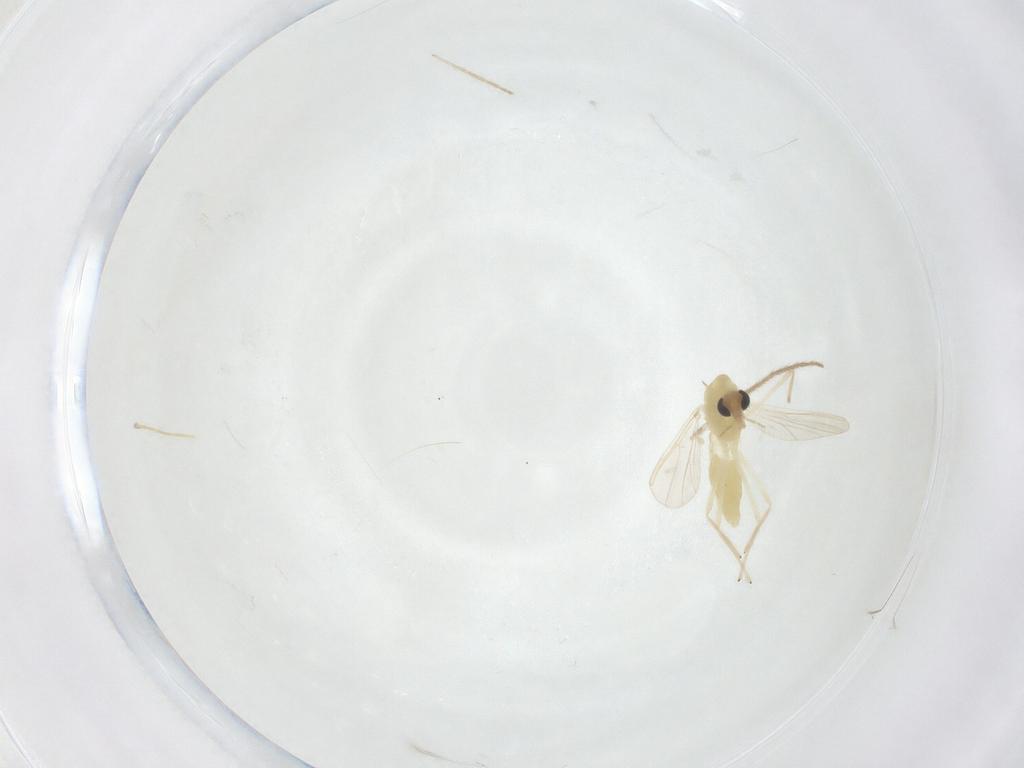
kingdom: Animalia
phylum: Arthropoda
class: Insecta
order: Diptera
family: Chironomidae
